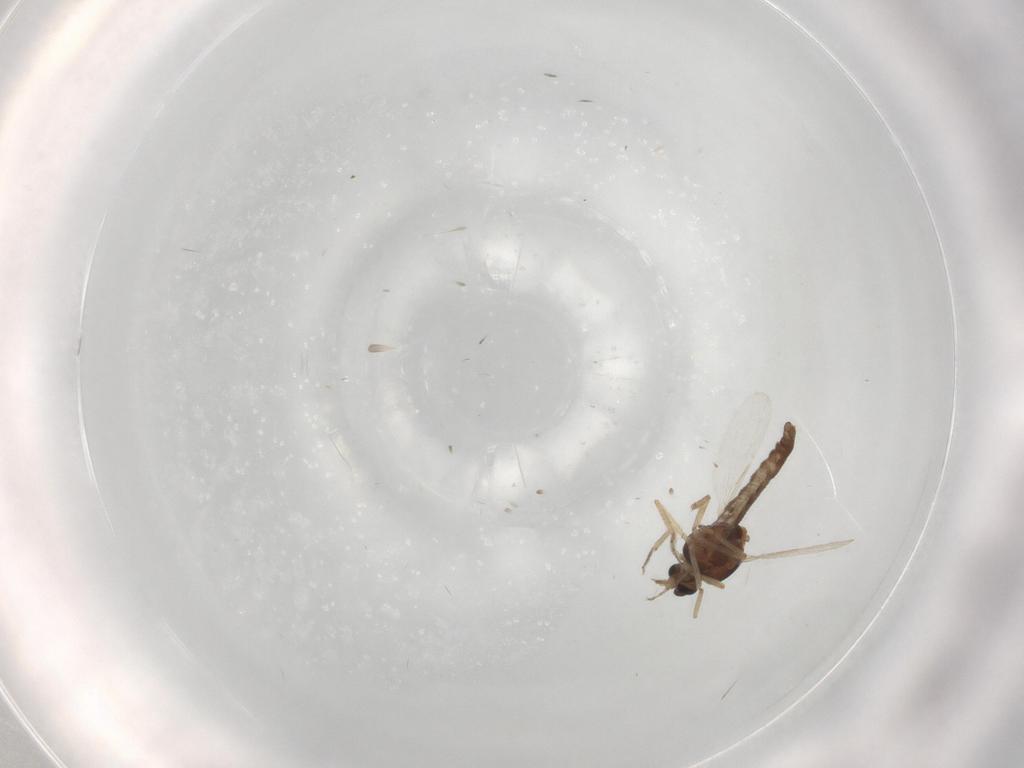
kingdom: Animalia
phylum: Arthropoda
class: Insecta
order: Diptera
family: Ceratopogonidae
